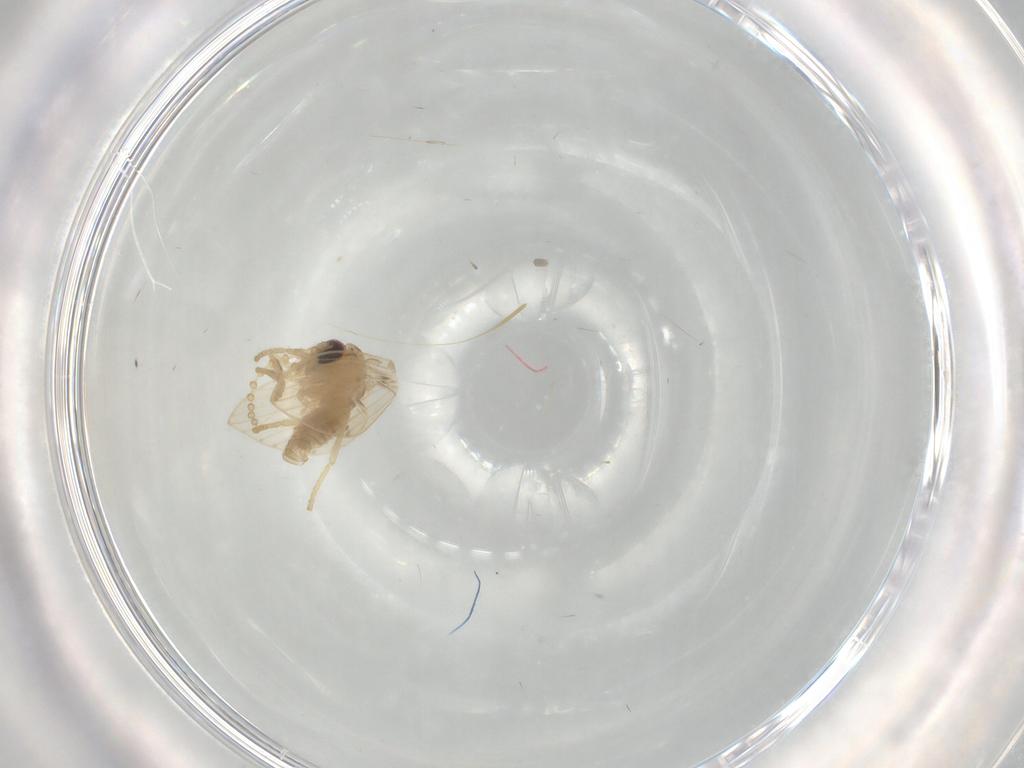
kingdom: Animalia
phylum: Arthropoda
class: Insecta
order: Diptera
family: Psychodidae
